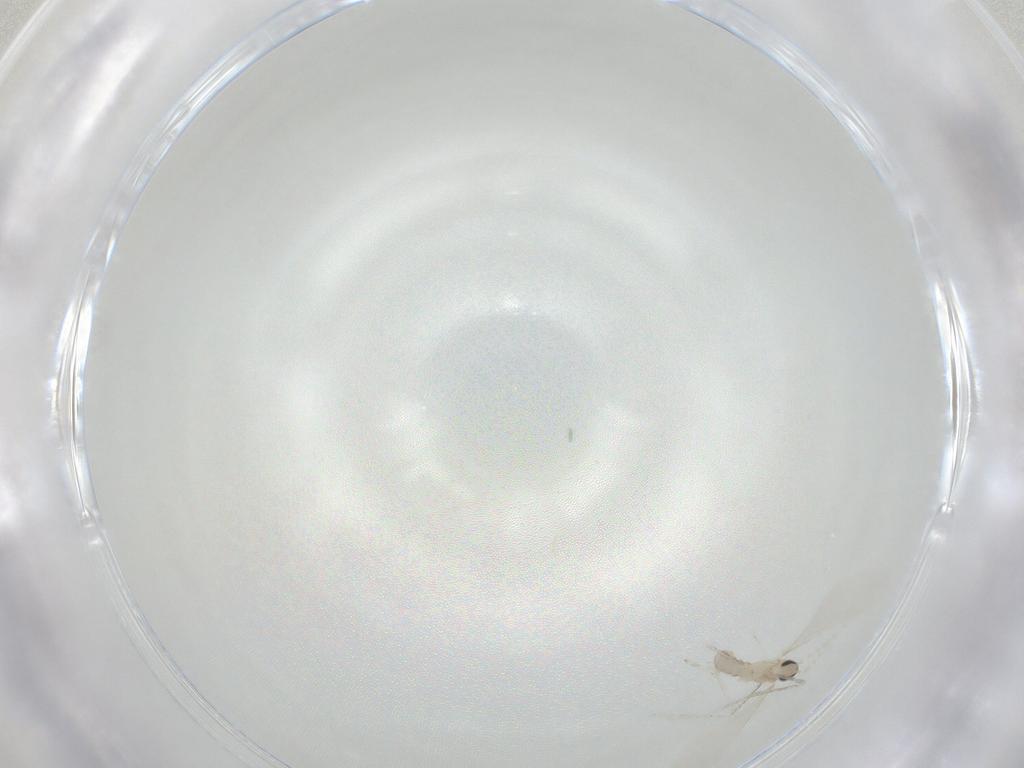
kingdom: Animalia
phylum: Arthropoda
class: Insecta
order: Diptera
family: Cecidomyiidae
